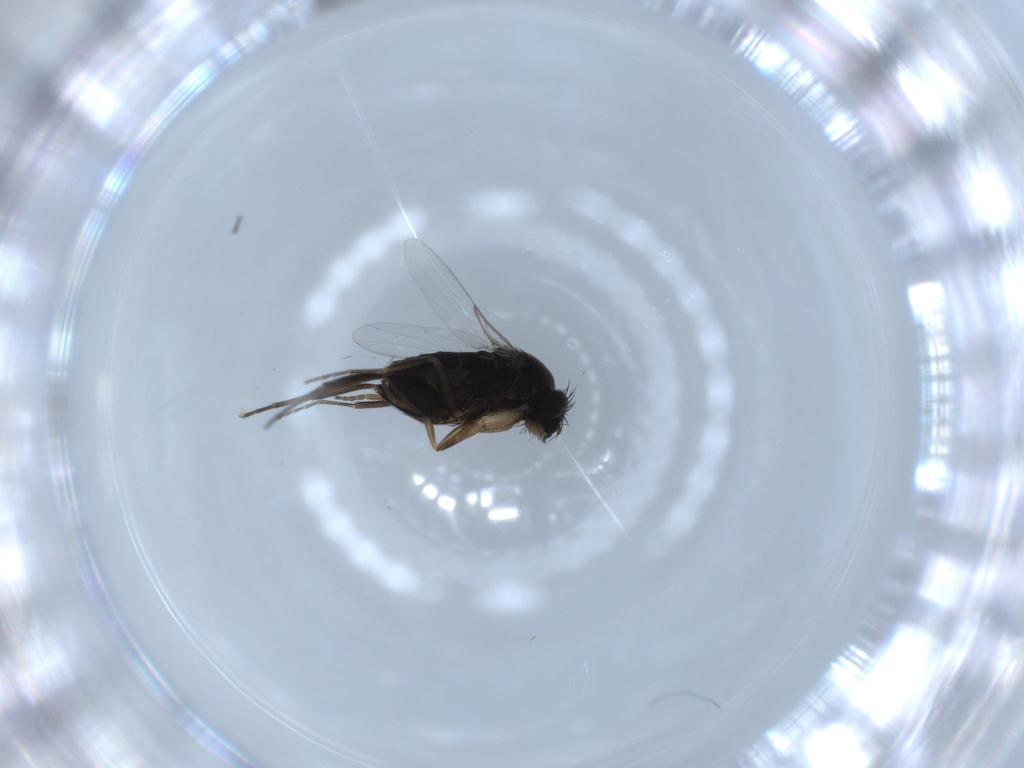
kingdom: Animalia
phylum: Arthropoda
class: Insecta
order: Diptera
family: Phoridae
